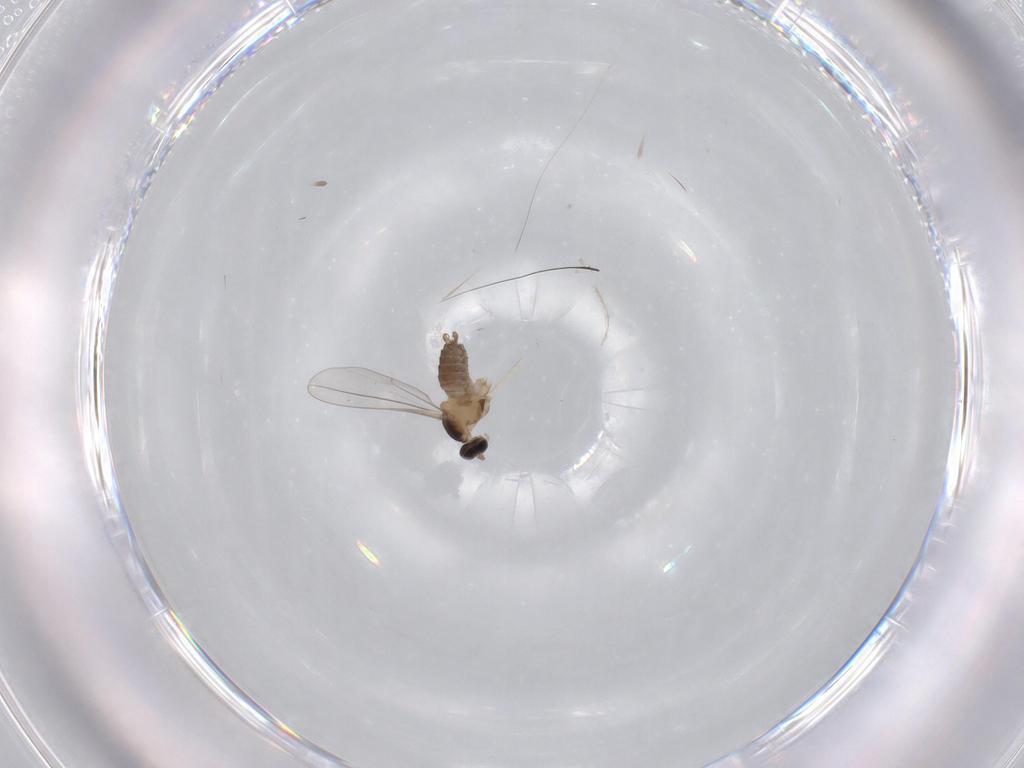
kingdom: Animalia
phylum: Arthropoda
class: Insecta
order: Diptera
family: Psychodidae
